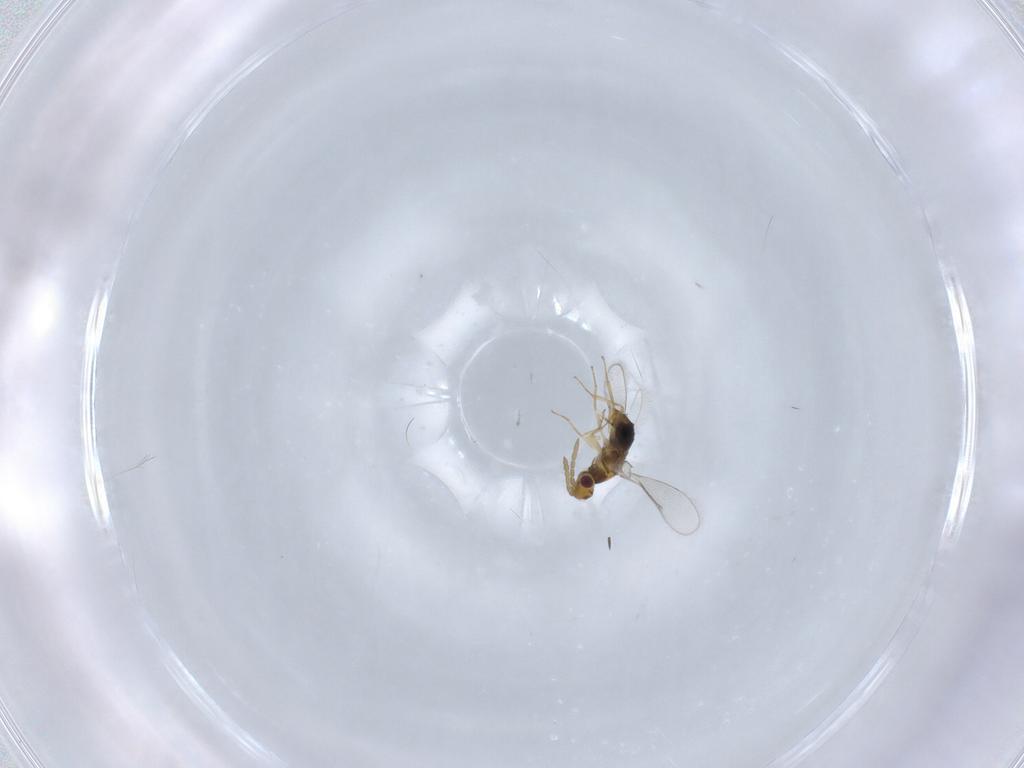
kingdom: Animalia
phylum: Arthropoda
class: Insecta
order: Hymenoptera
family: Aphelinidae
